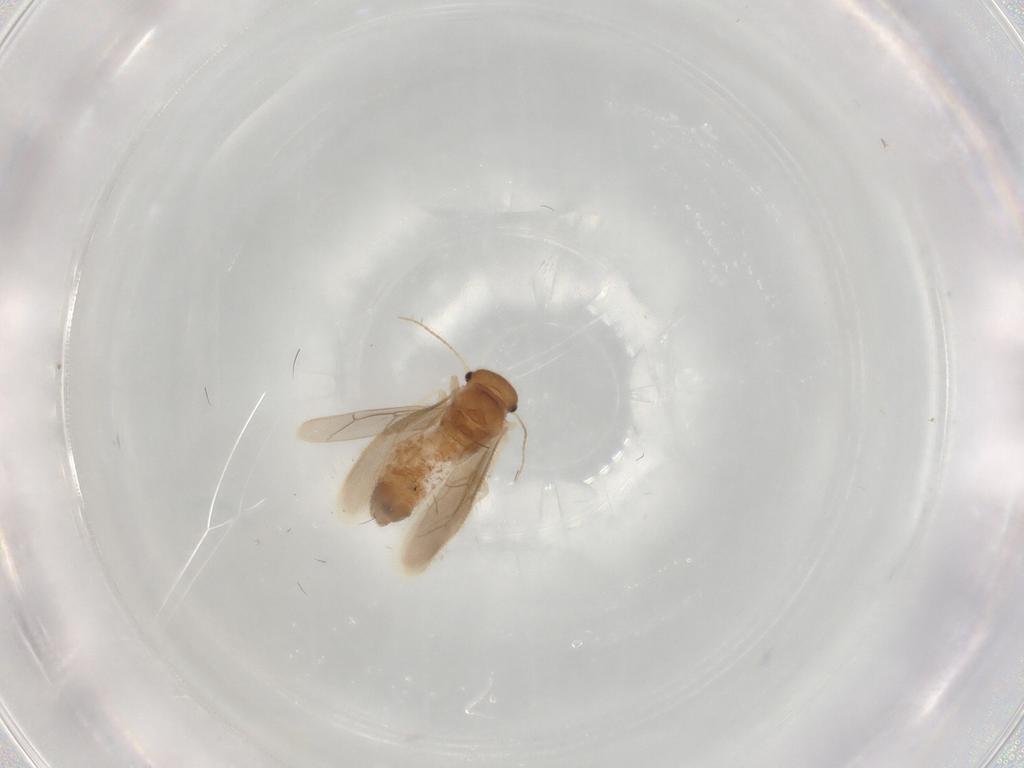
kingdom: Animalia
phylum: Arthropoda
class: Insecta
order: Psocodea
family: Archipsocidae
